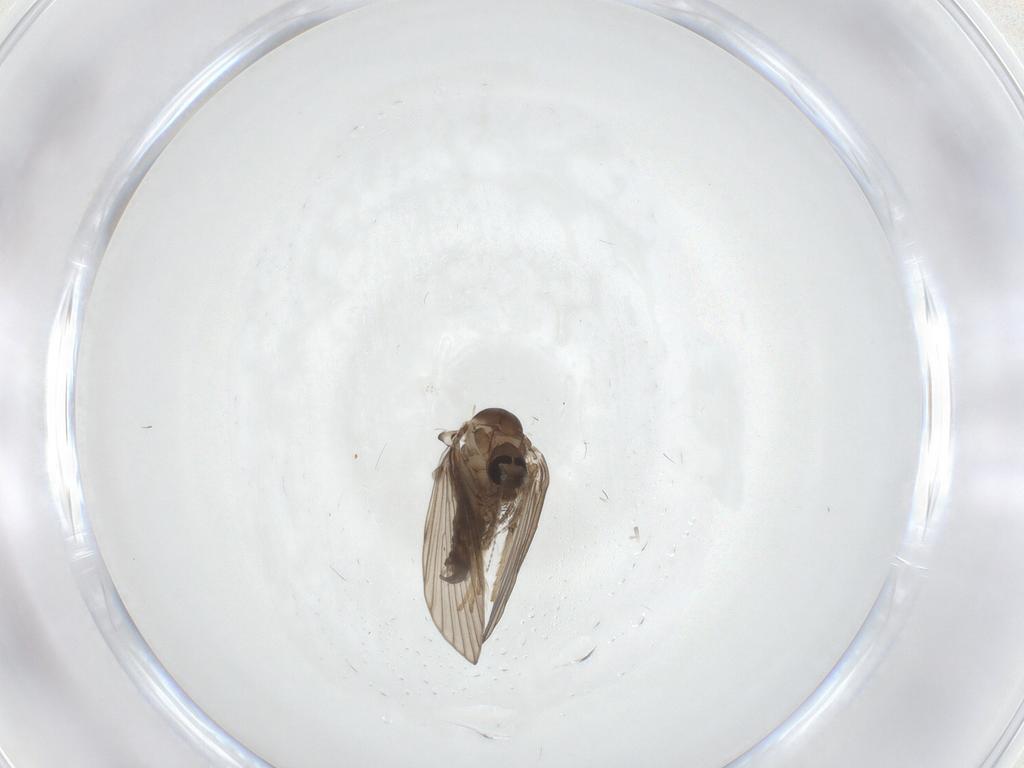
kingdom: Animalia
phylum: Arthropoda
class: Insecta
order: Diptera
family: Psychodidae
